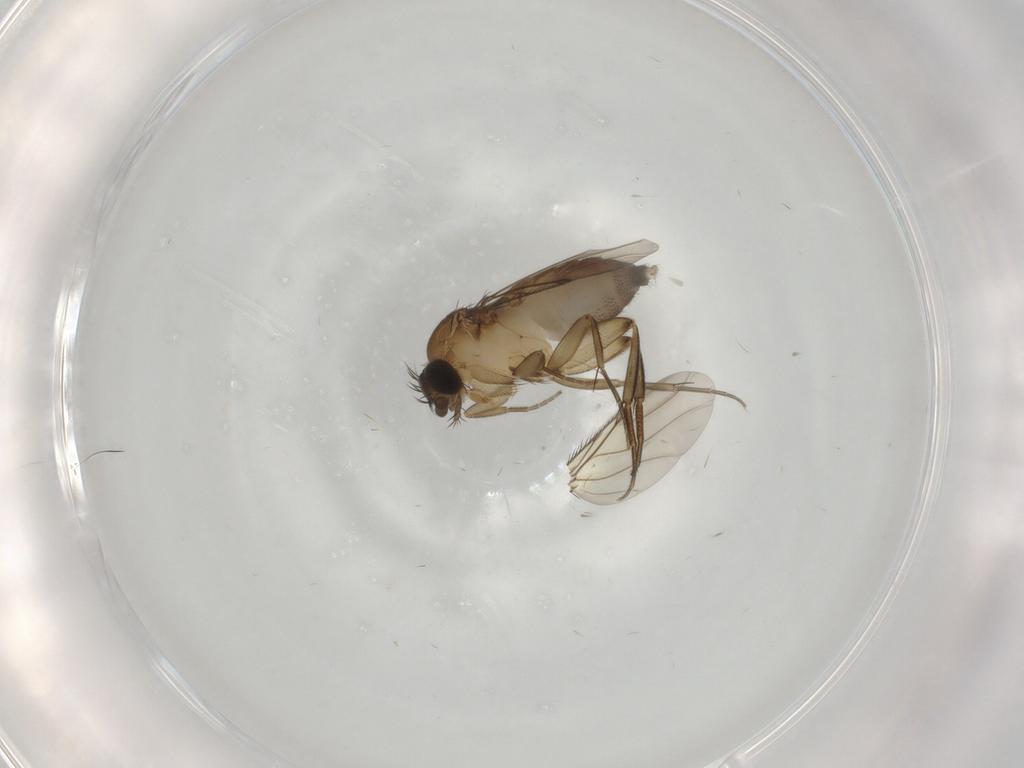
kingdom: Animalia
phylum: Arthropoda
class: Insecta
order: Diptera
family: Phoridae
